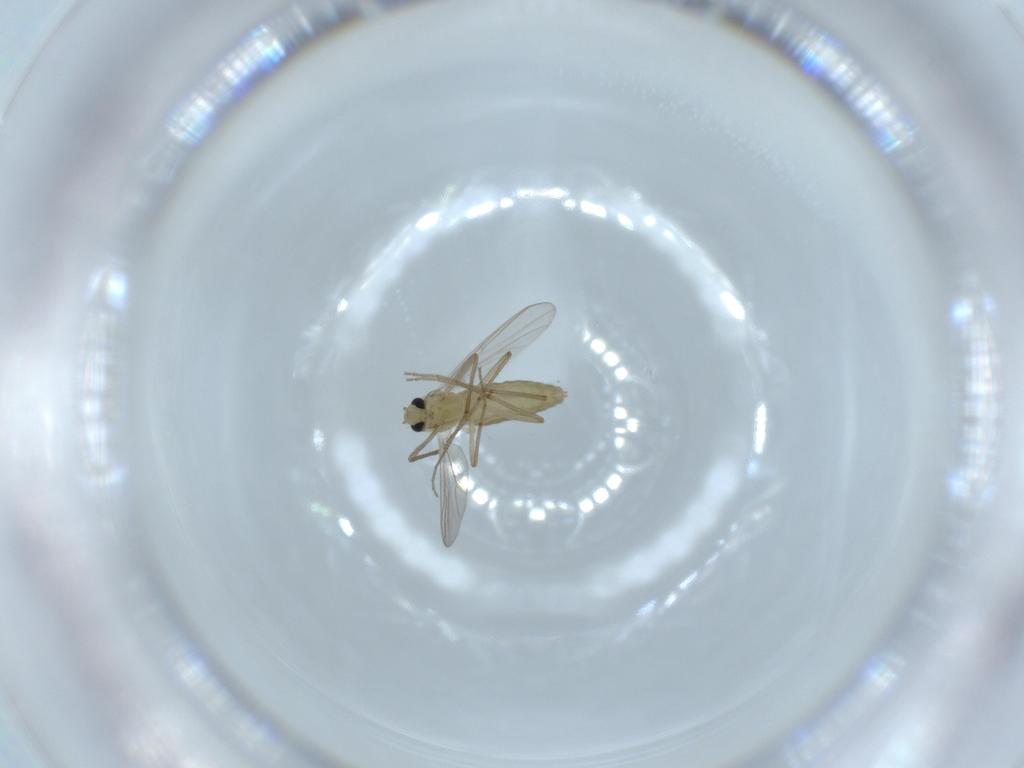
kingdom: Animalia
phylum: Arthropoda
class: Insecta
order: Diptera
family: Chironomidae
